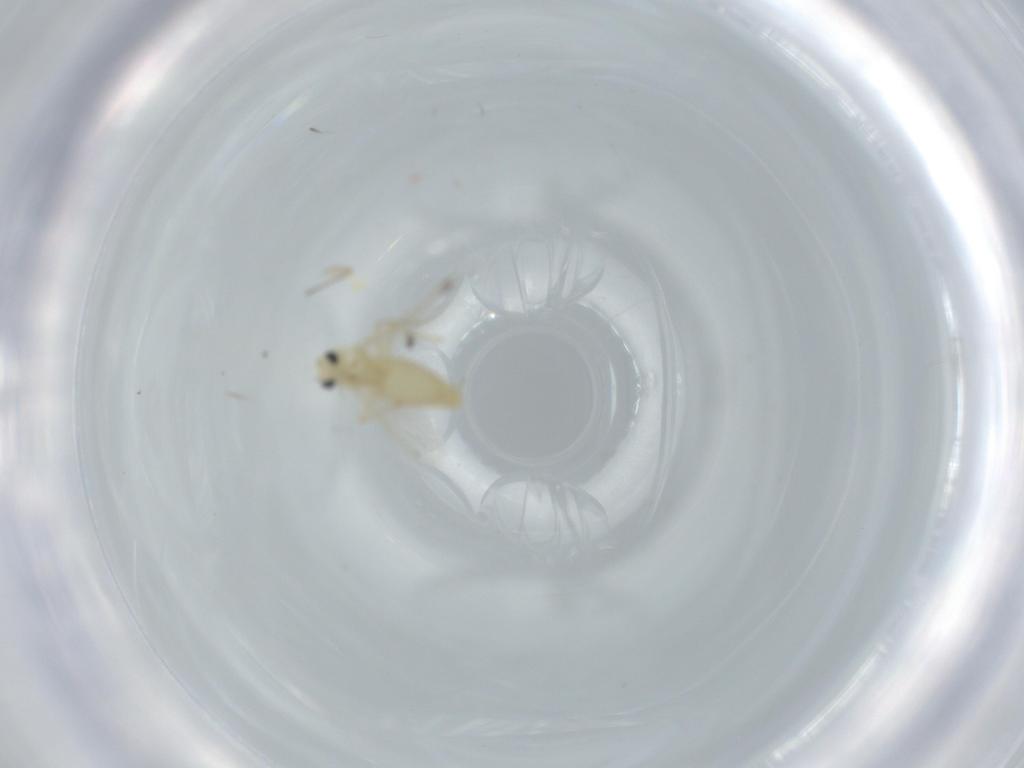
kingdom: Animalia
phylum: Arthropoda
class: Insecta
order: Diptera
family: Chironomidae
